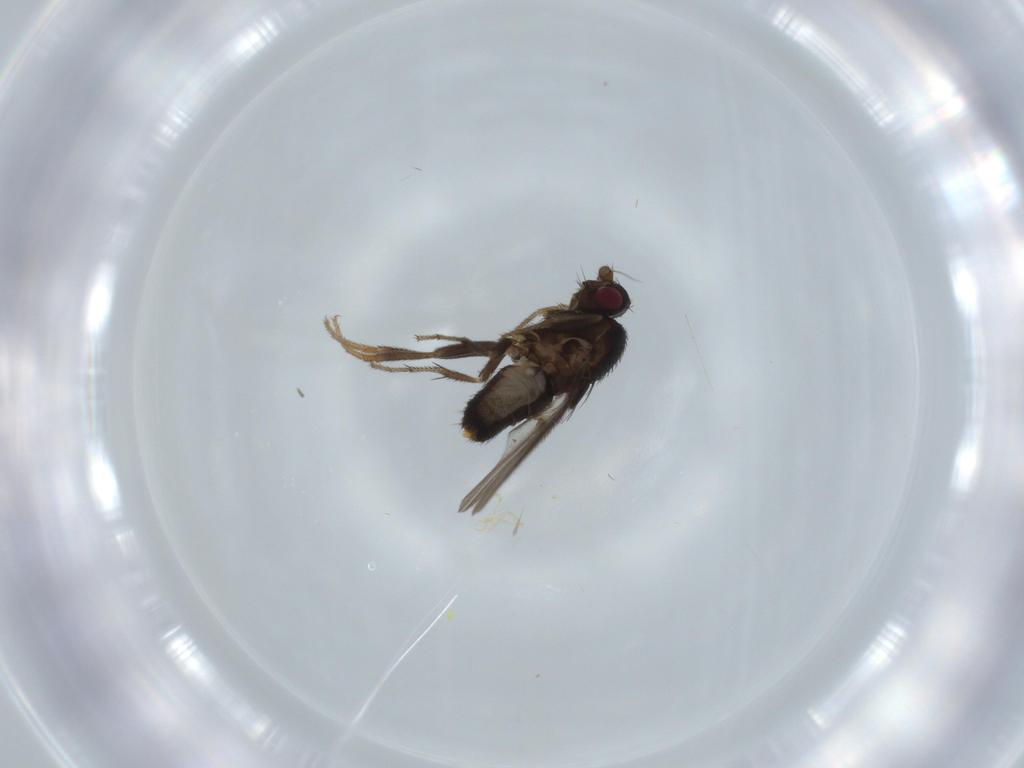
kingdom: Animalia
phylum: Arthropoda
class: Insecta
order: Diptera
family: Sphaeroceridae
